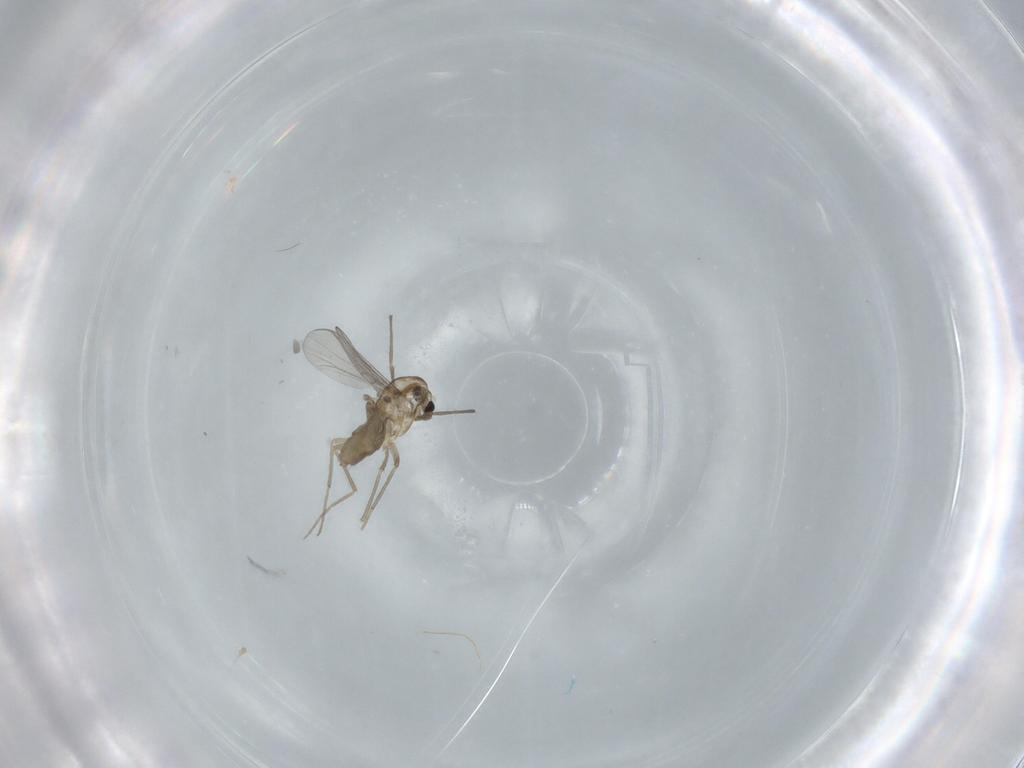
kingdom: Animalia
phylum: Arthropoda
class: Insecta
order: Diptera
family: Chironomidae
